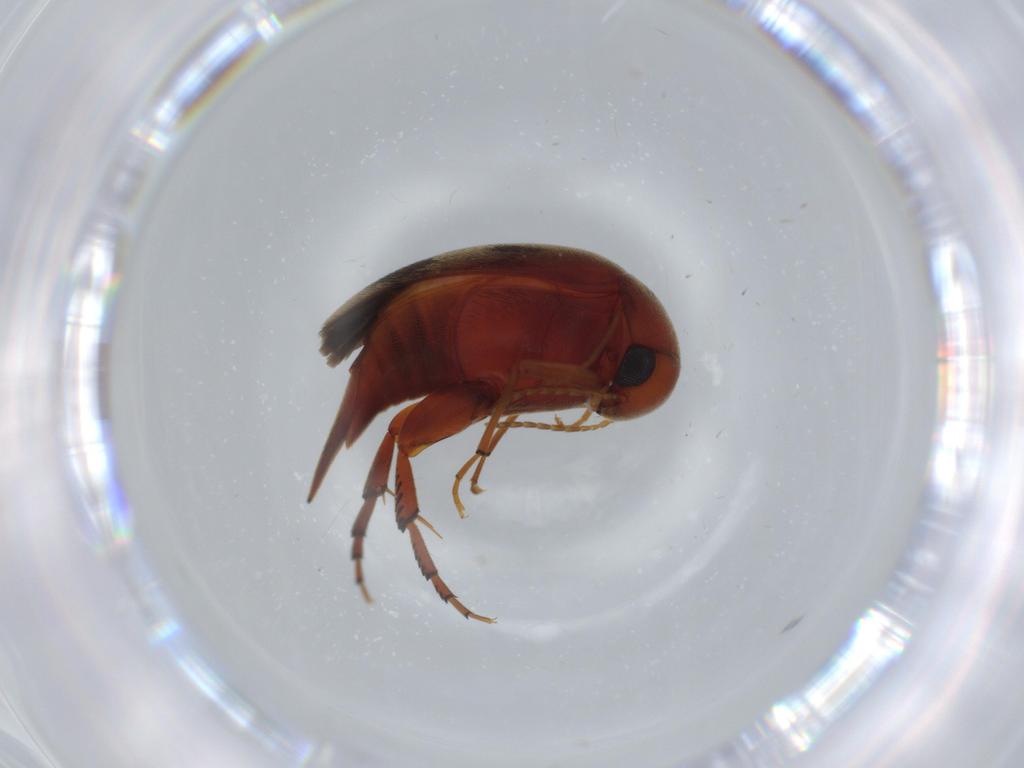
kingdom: Animalia
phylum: Arthropoda
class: Insecta
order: Coleoptera
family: Chrysomelidae
